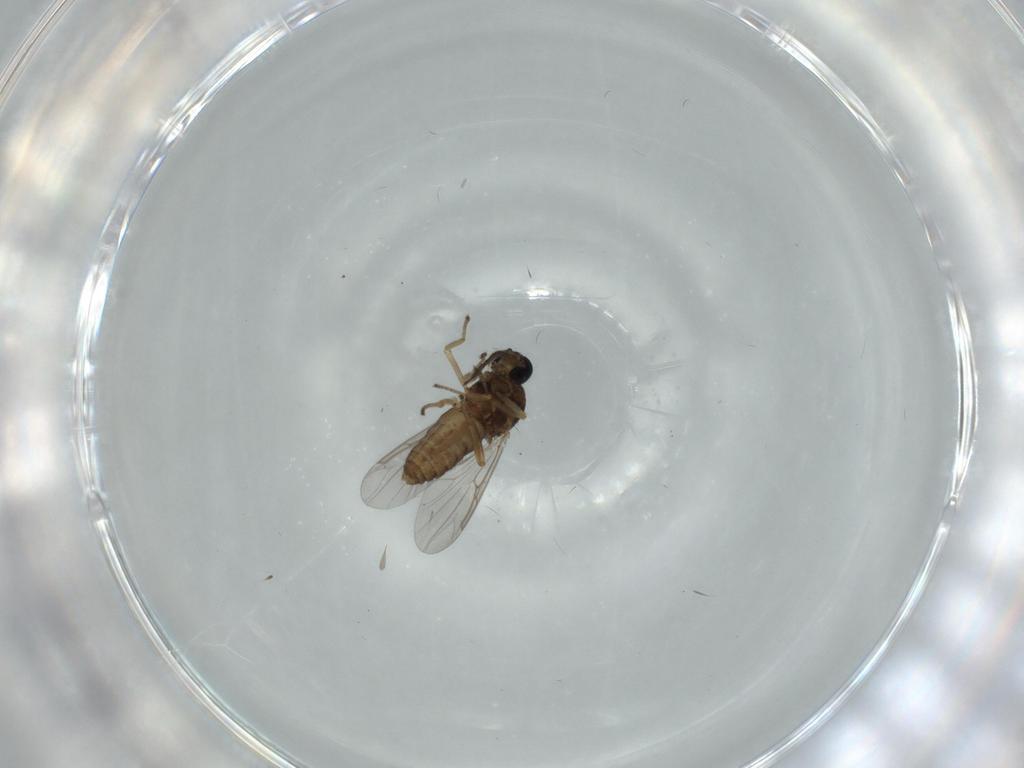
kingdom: Animalia
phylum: Arthropoda
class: Insecta
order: Diptera
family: Ceratopogonidae
